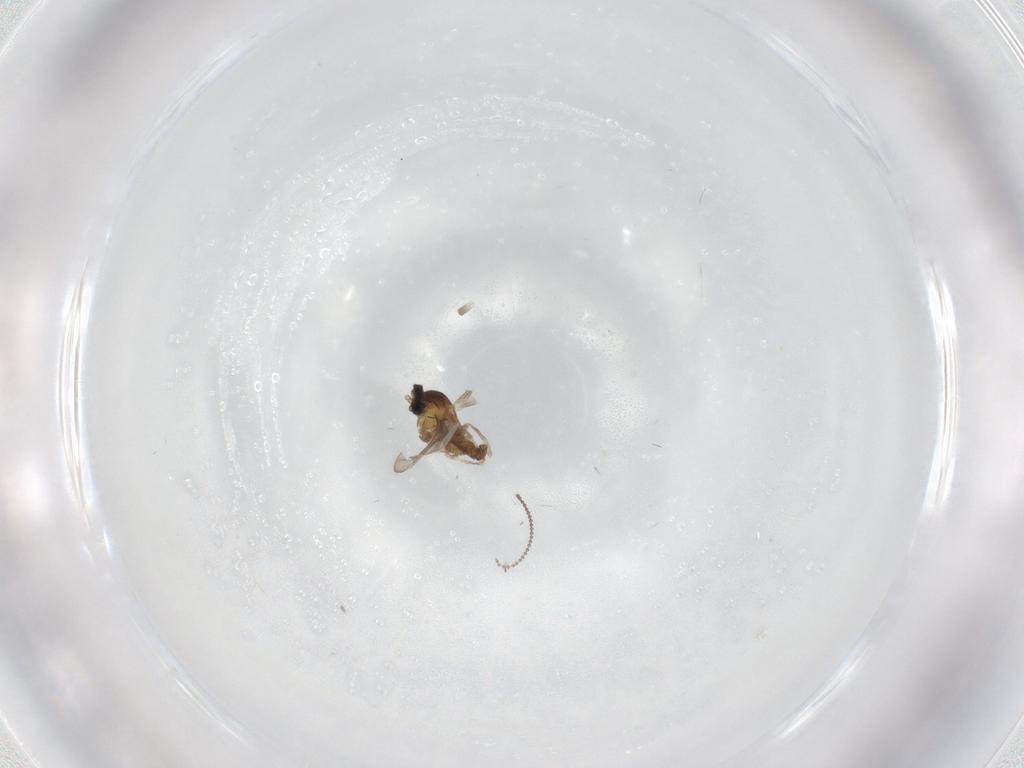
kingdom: Animalia
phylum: Arthropoda
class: Insecta
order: Diptera
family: Cecidomyiidae
